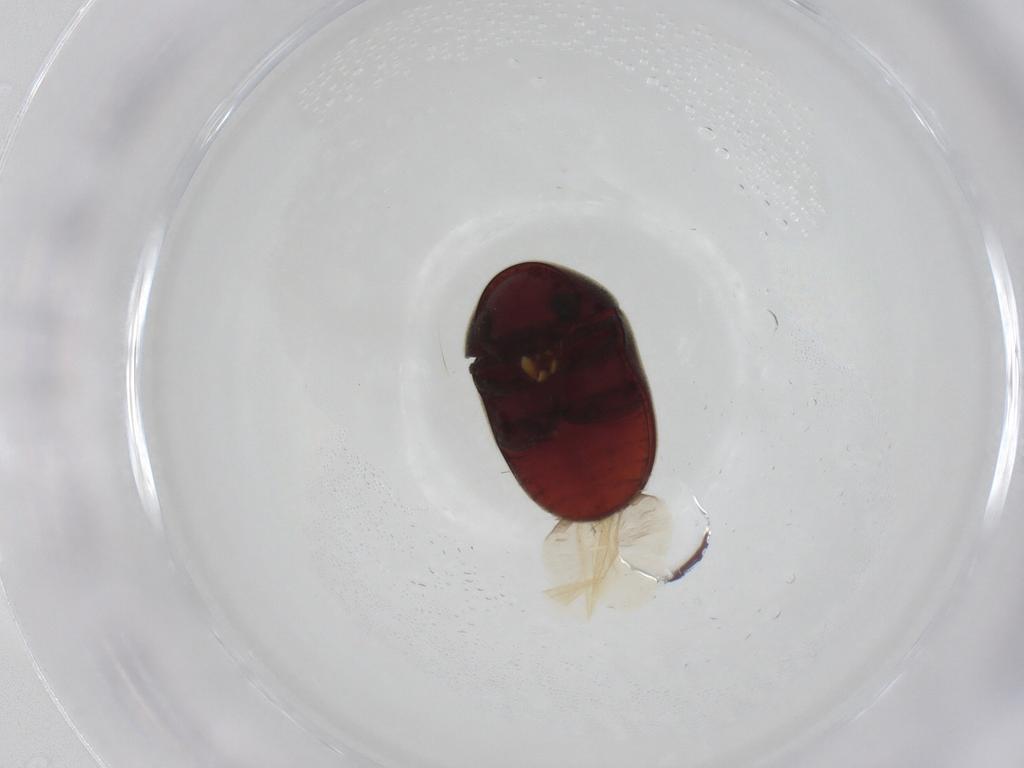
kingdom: Animalia
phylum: Arthropoda
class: Insecta
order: Coleoptera
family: Ptinidae
